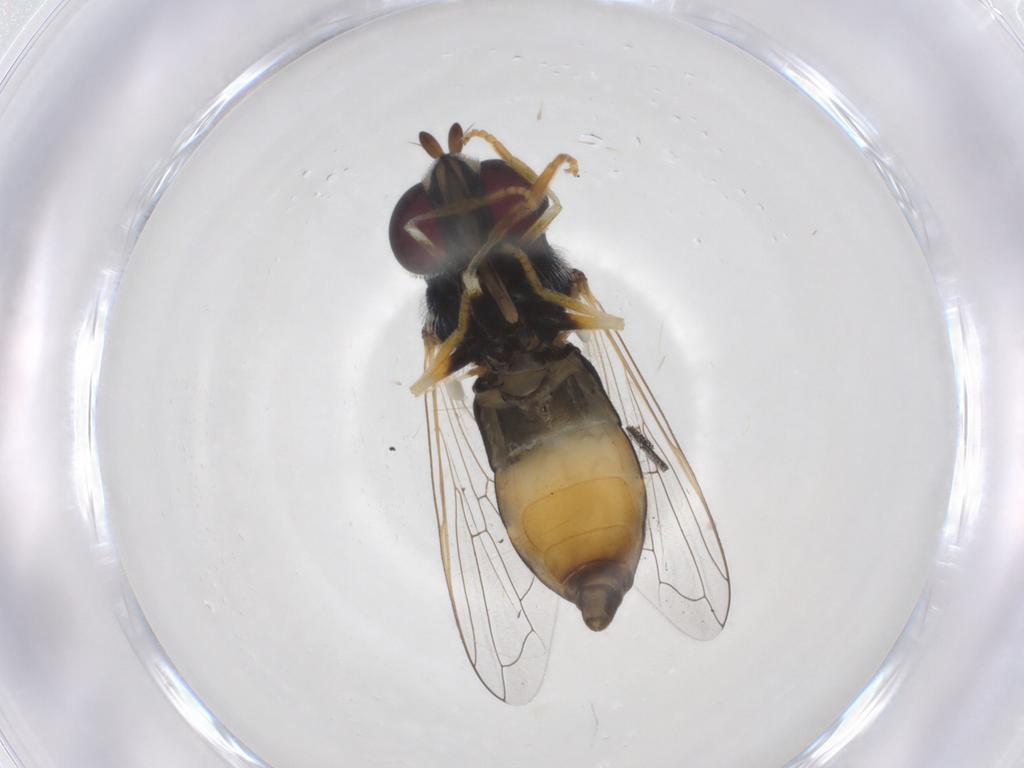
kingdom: Animalia
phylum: Arthropoda
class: Insecta
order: Diptera
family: Syrphidae
